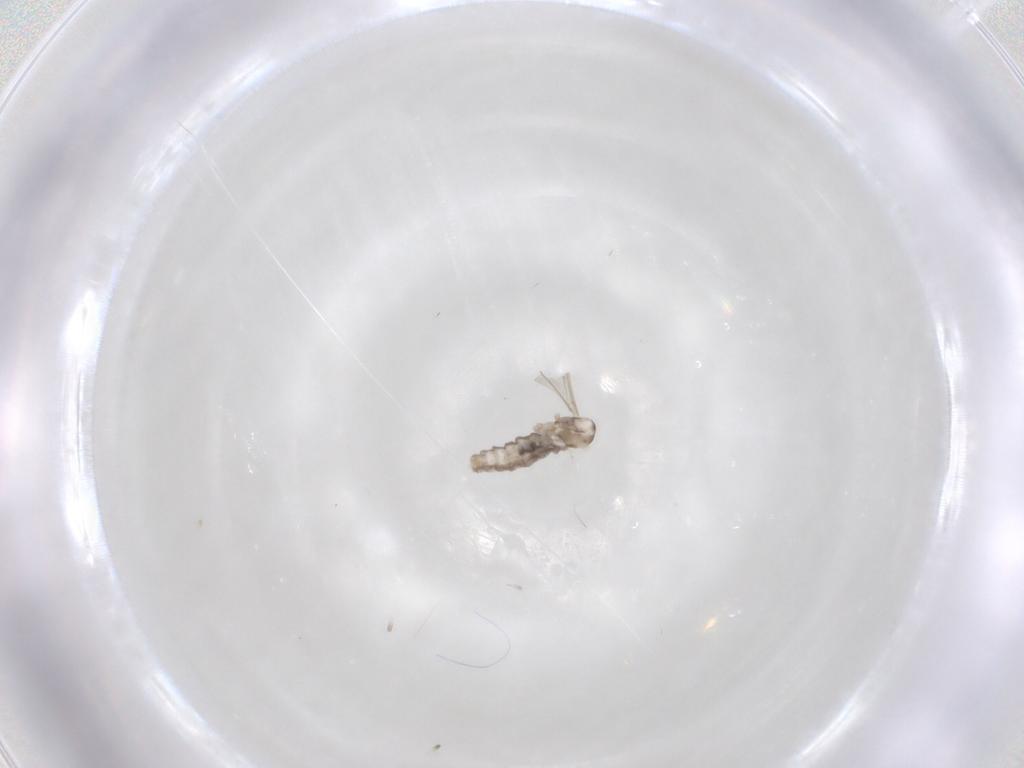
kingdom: Animalia
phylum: Arthropoda
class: Insecta
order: Diptera
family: Cecidomyiidae
